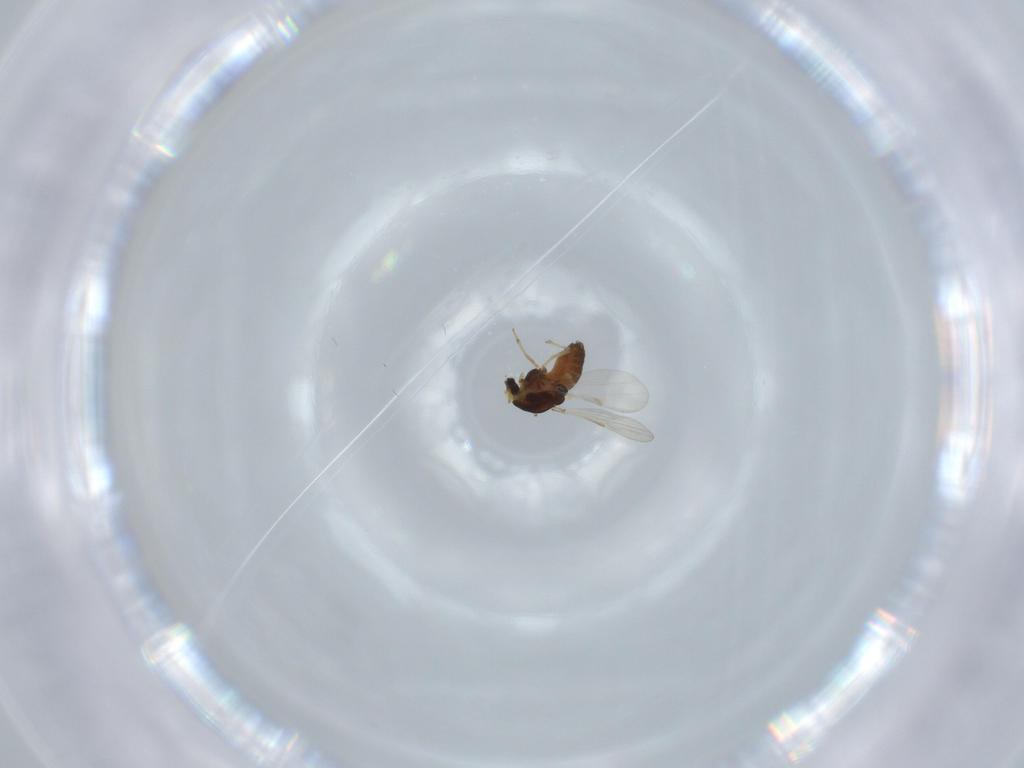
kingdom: Animalia
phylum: Arthropoda
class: Insecta
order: Diptera
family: Chironomidae
